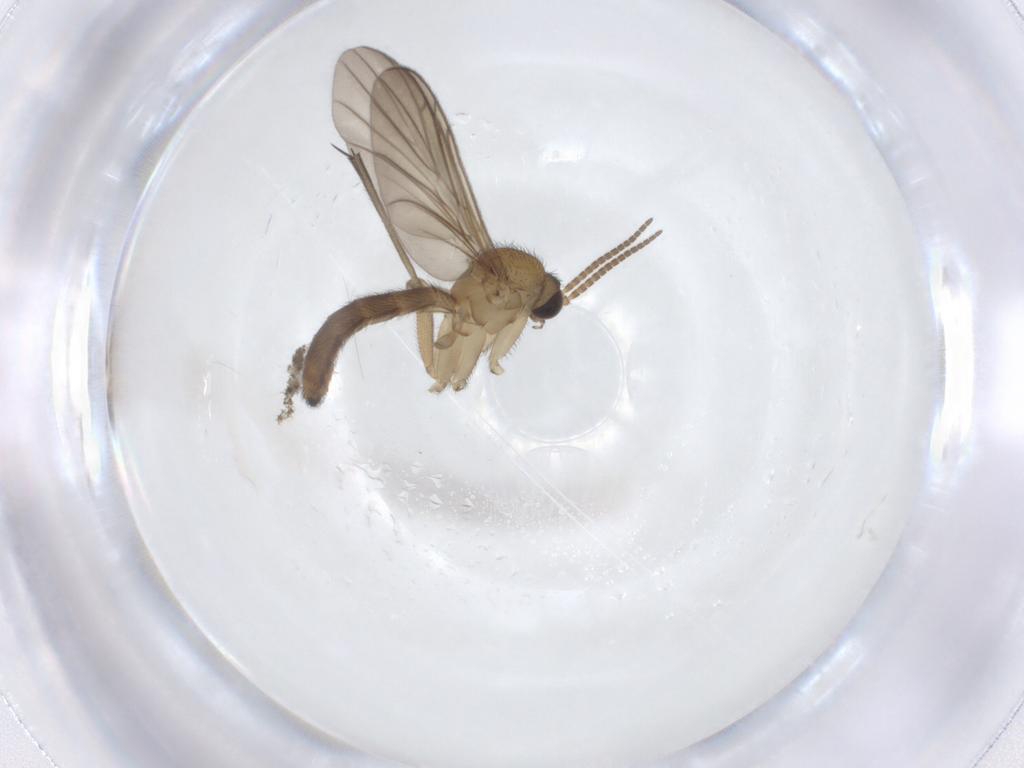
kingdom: Animalia
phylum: Arthropoda
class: Insecta
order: Diptera
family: Keroplatidae
